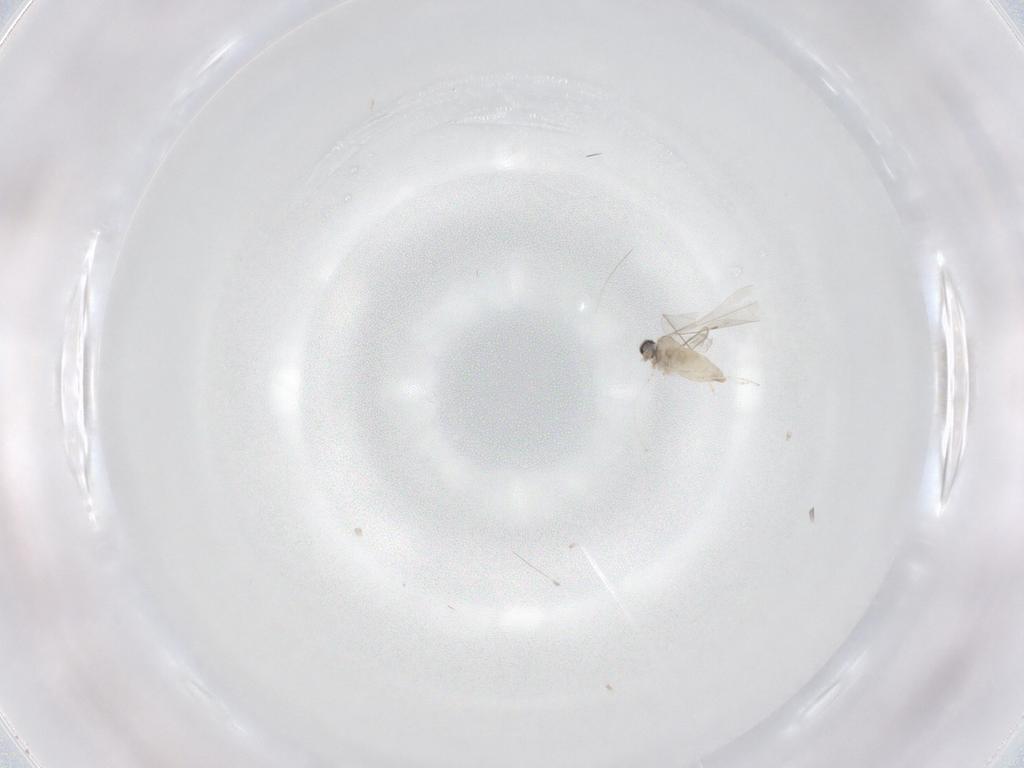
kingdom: Animalia
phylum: Arthropoda
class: Insecta
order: Diptera
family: Cecidomyiidae
